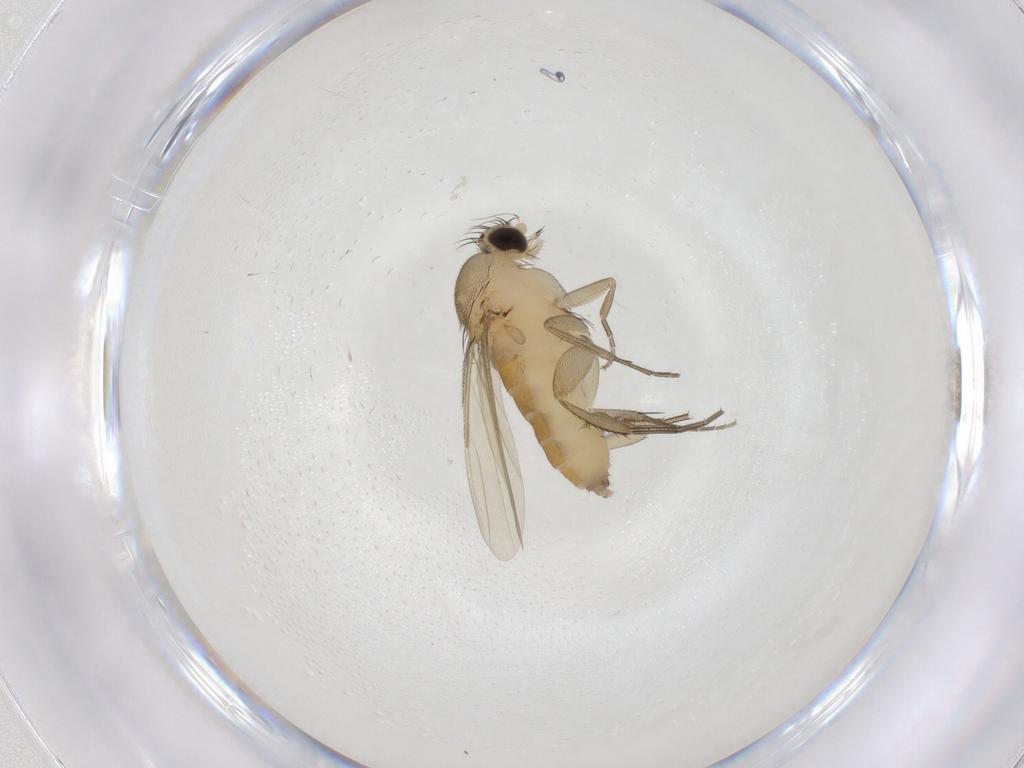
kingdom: Animalia
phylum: Arthropoda
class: Insecta
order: Diptera
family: Phoridae
